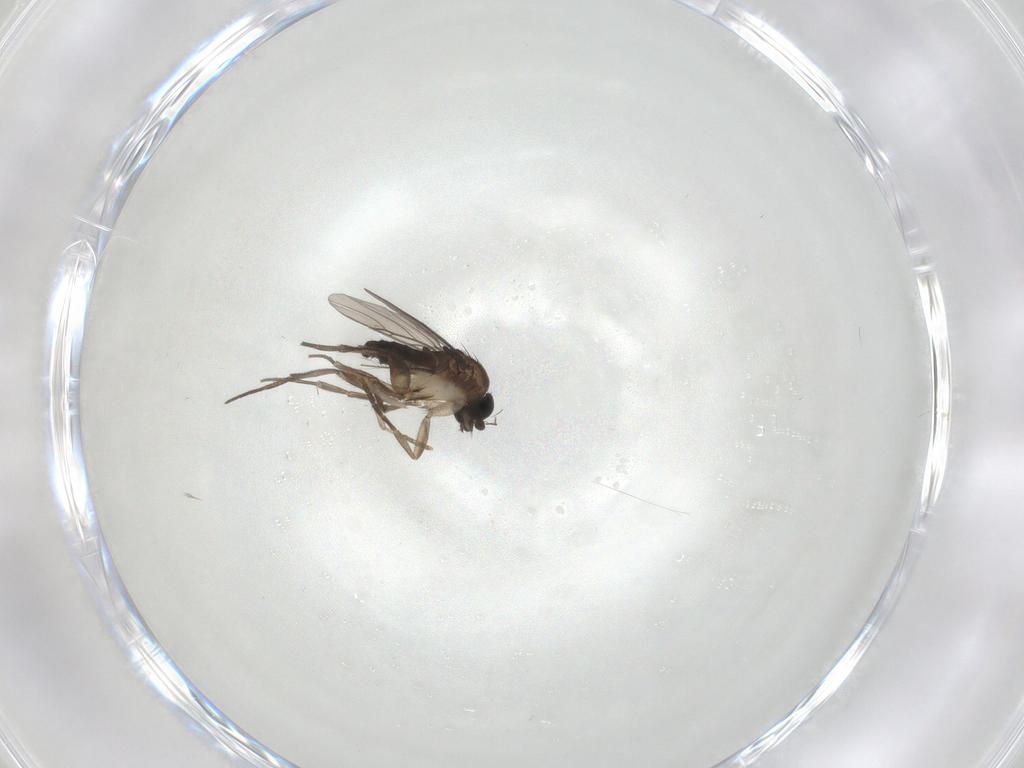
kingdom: Animalia
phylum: Arthropoda
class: Insecta
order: Diptera
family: Phoridae
